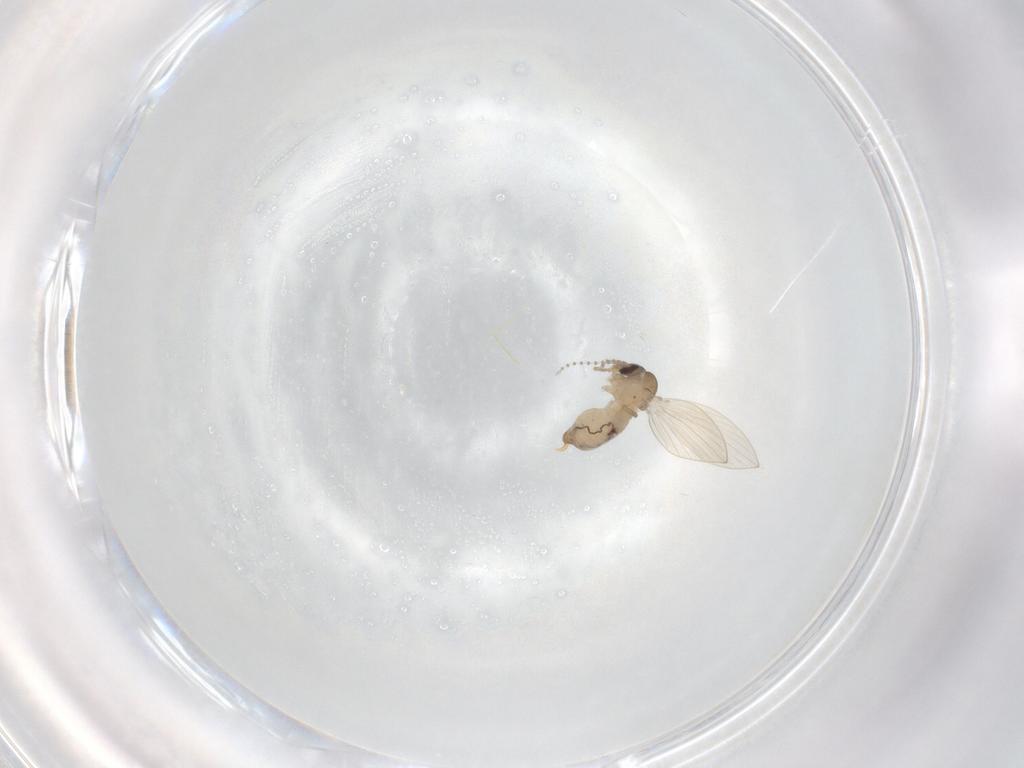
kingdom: Animalia
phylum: Arthropoda
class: Insecta
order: Diptera
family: Psychodidae
